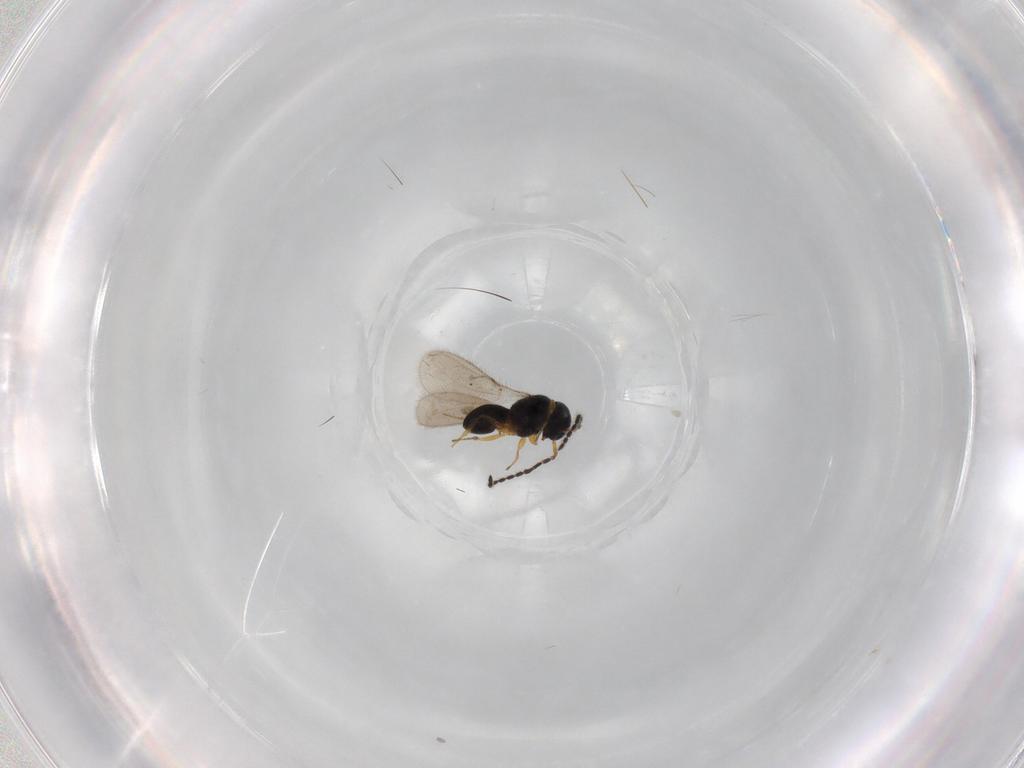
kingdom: Animalia
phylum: Arthropoda
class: Insecta
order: Hymenoptera
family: Scelionidae
